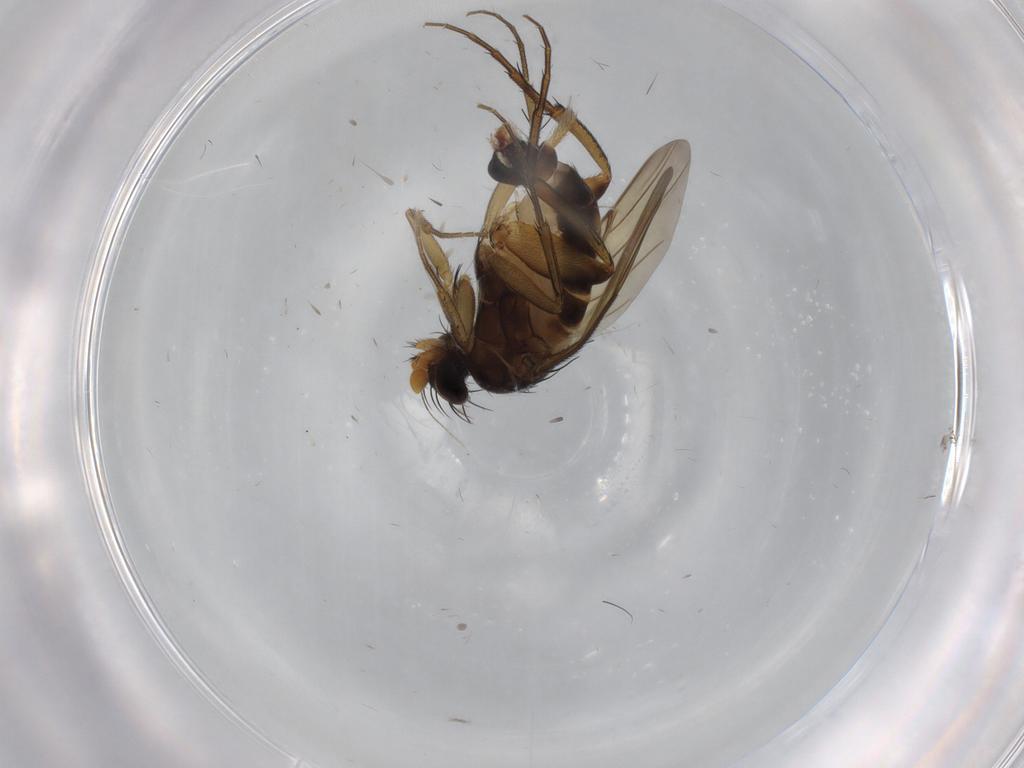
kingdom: Animalia
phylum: Arthropoda
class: Insecta
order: Diptera
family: Phoridae
